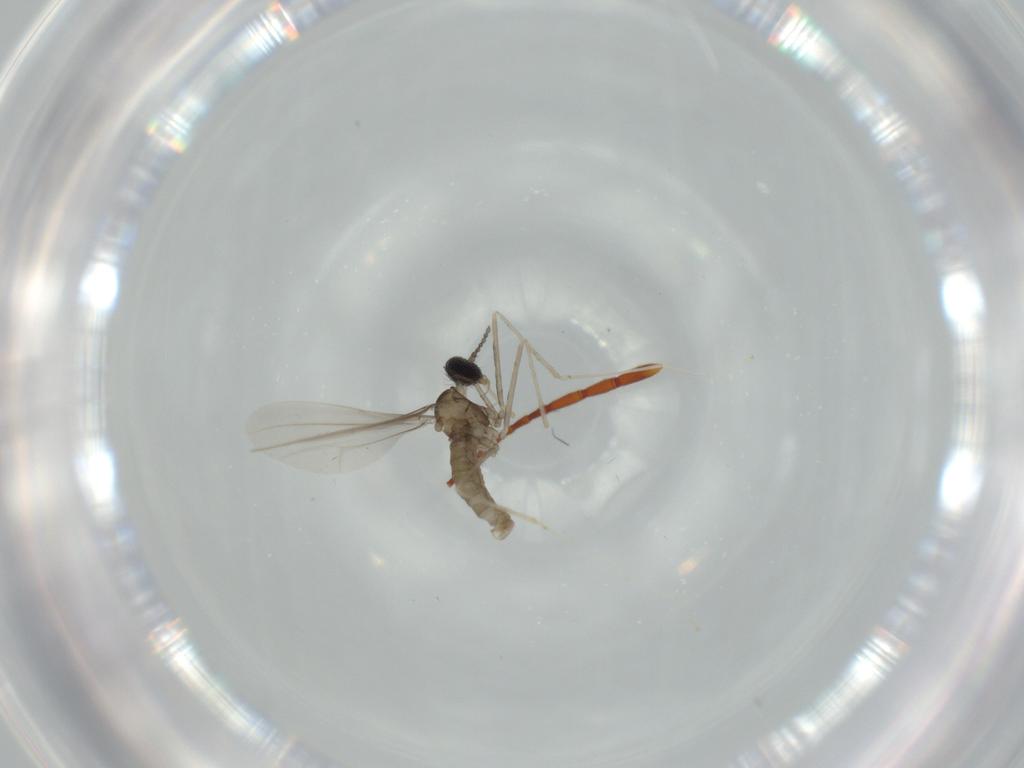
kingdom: Animalia
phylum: Arthropoda
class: Insecta
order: Diptera
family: Cecidomyiidae
